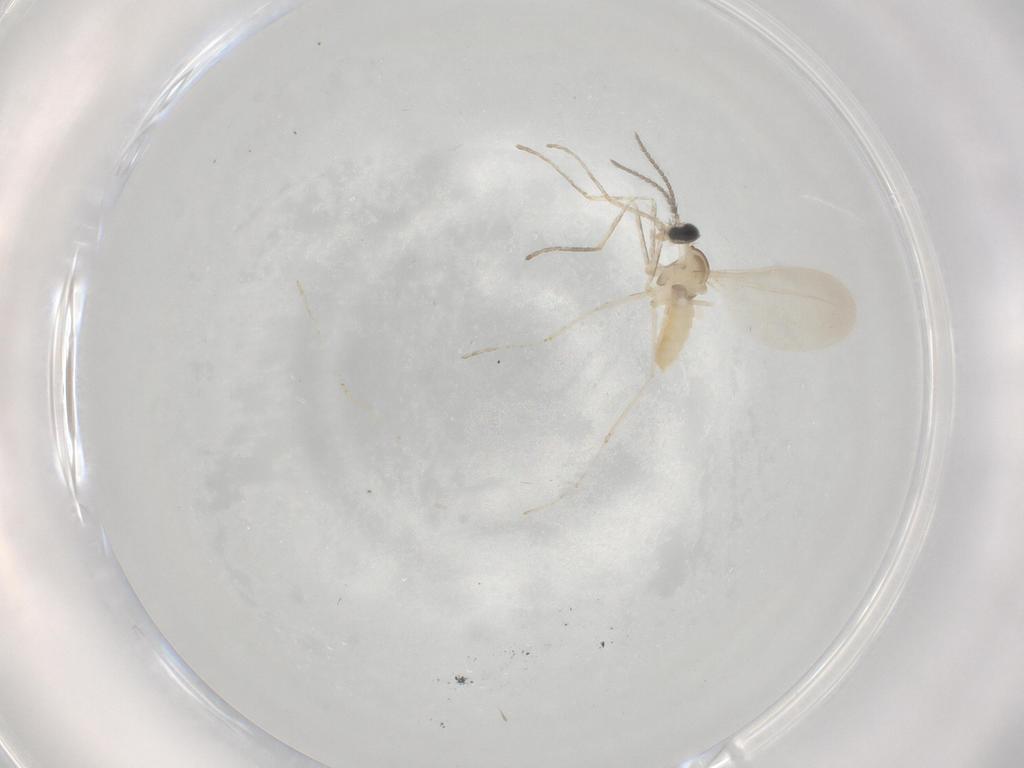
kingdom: Animalia
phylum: Arthropoda
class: Insecta
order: Diptera
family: Cecidomyiidae
